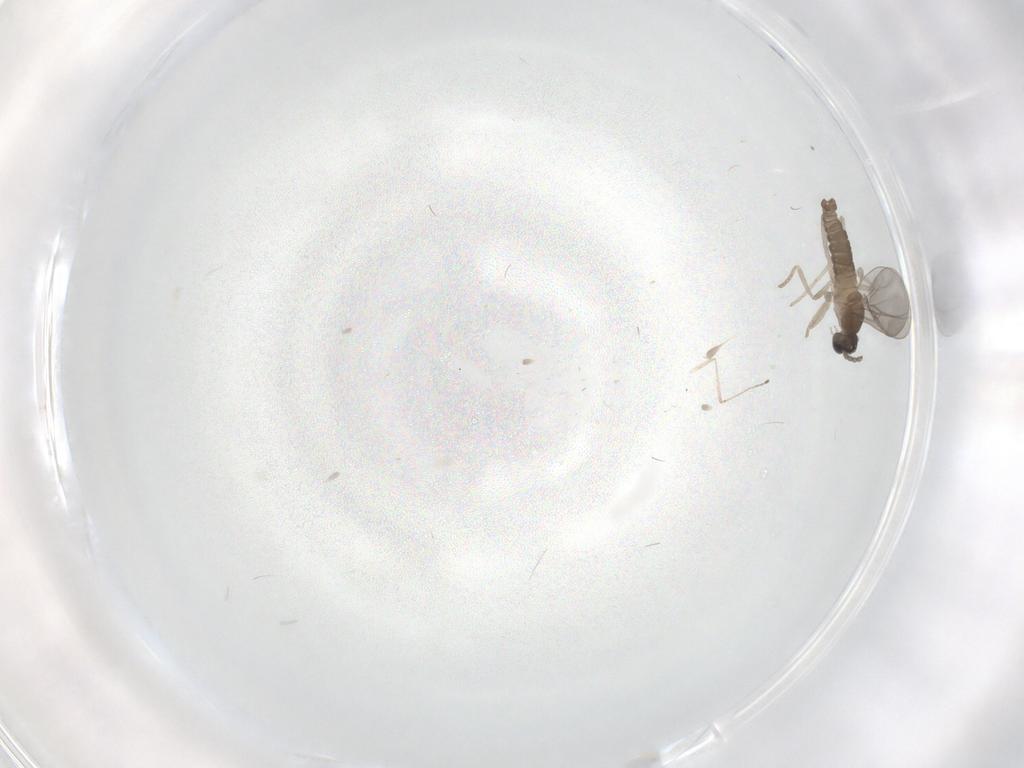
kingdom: Animalia
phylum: Arthropoda
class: Insecta
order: Diptera
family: Cecidomyiidae
